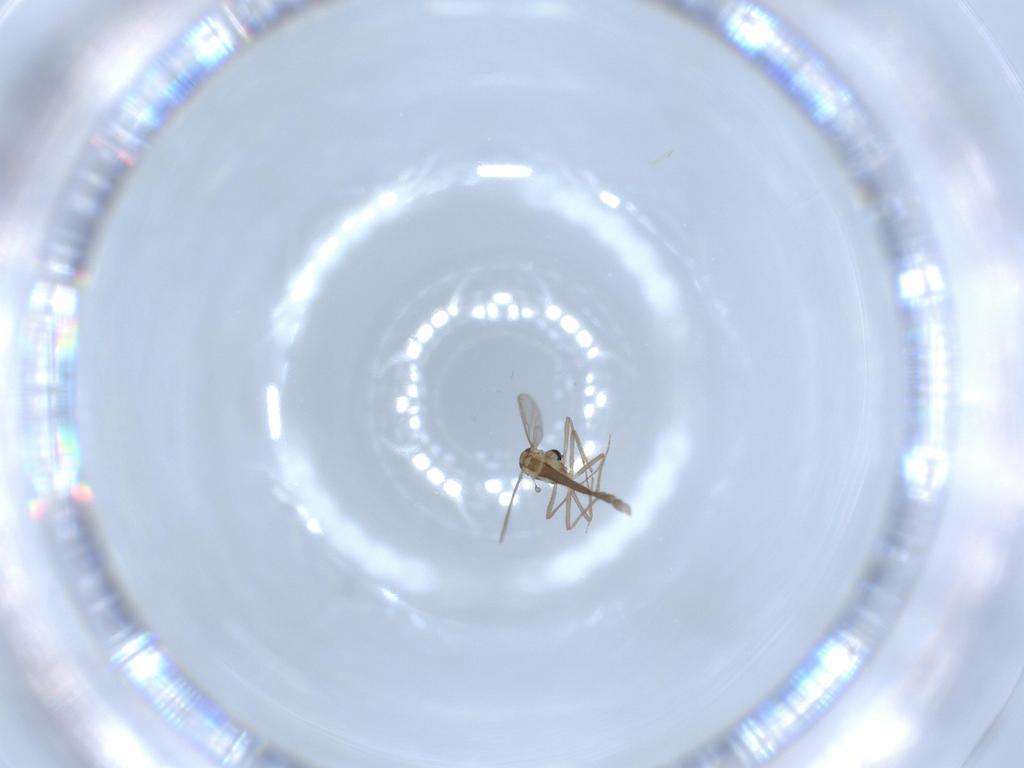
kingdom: Animalia
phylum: Arthropoda
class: Insecta
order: Diptera
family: Chironomidae
